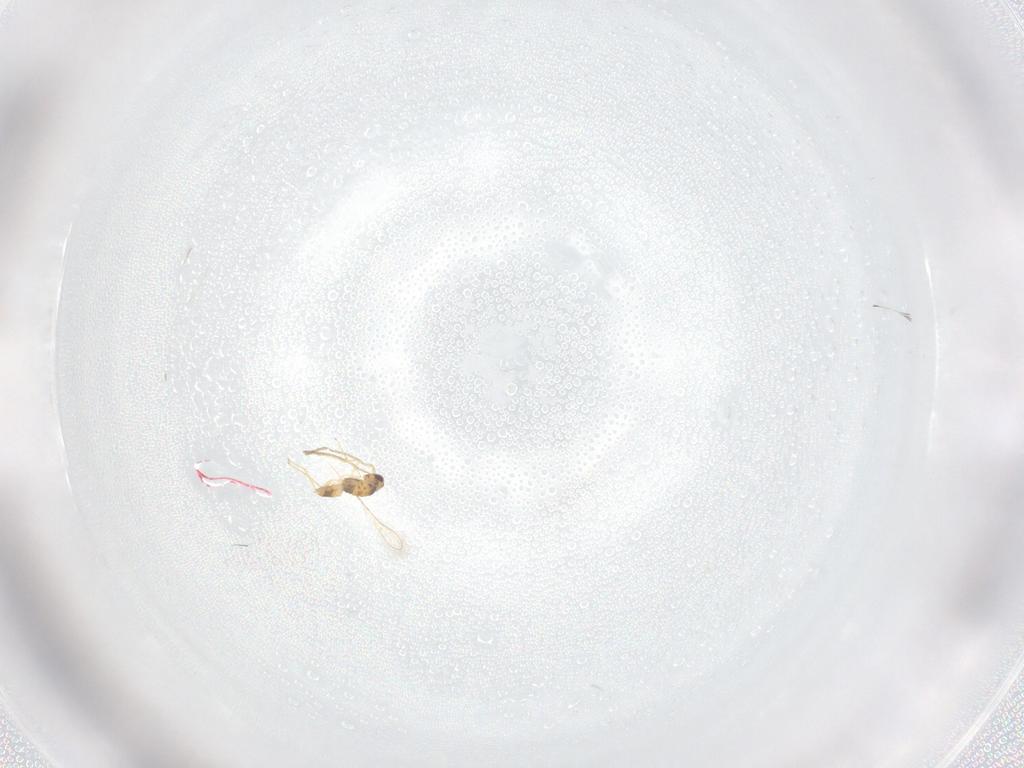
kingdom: Animalia
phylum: Arthropoda
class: Insecta
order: Hymenoptera
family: Mymaridae
